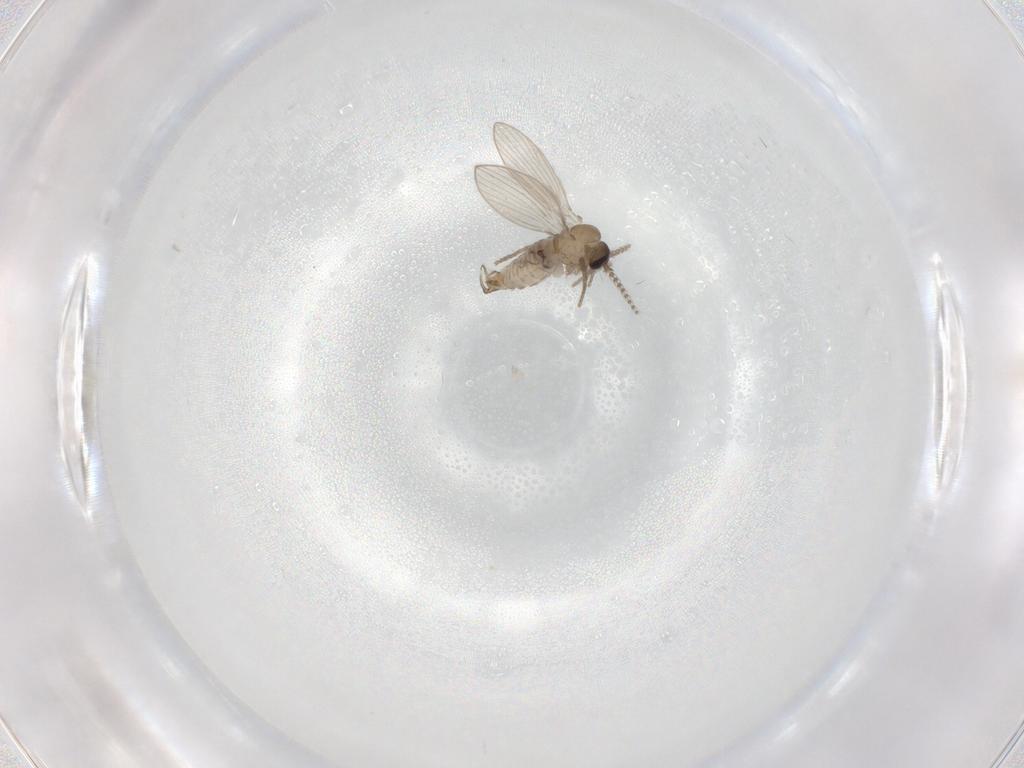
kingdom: Animalia
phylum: Arthropoda
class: Insecta
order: Diptera
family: Psychodidae
